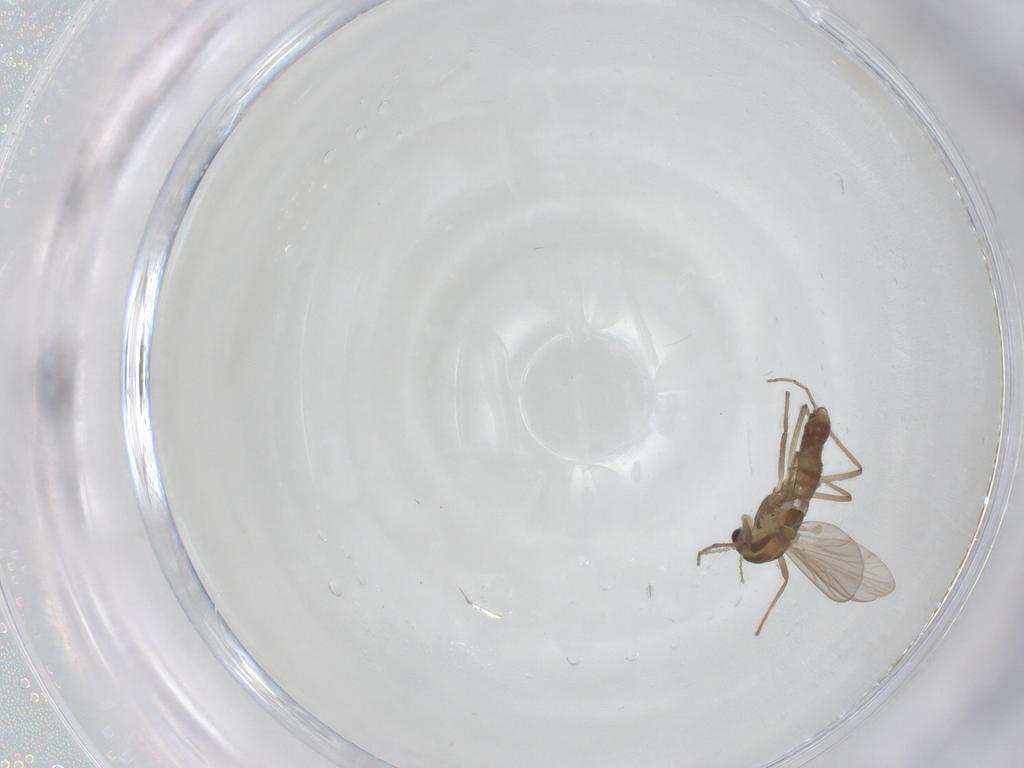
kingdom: Animalia
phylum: Arthropoda
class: Insecta
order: Diptera
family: Chironomidae
